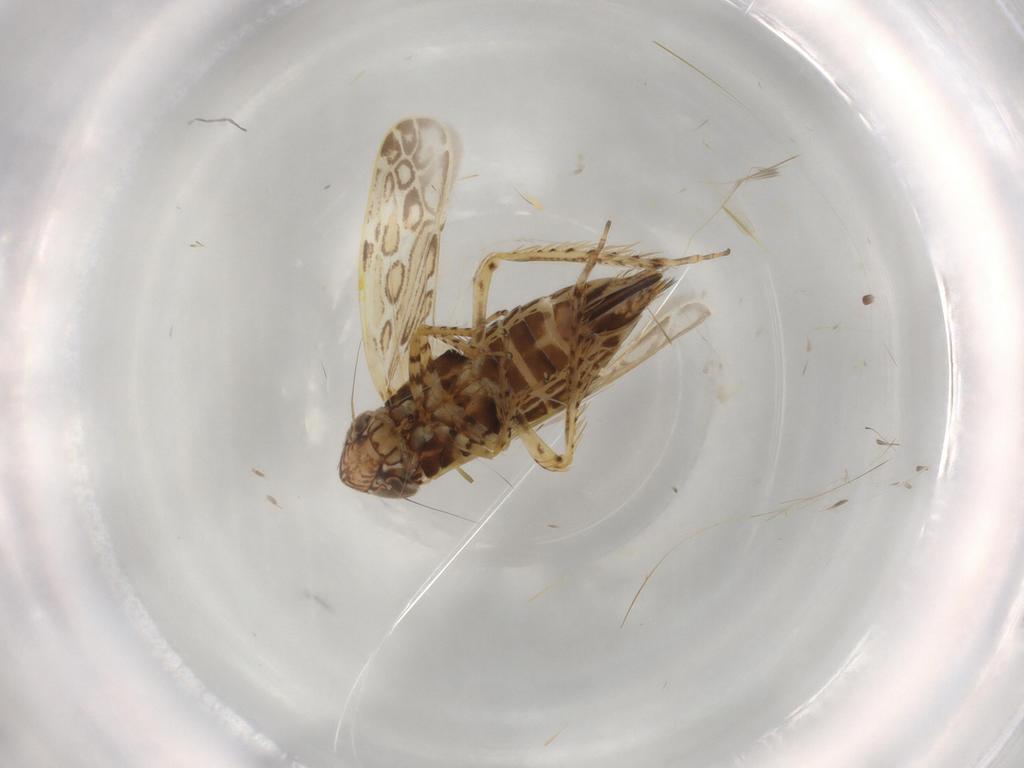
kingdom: Animalia
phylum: Arthropoda
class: Insecta
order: Hemiptera
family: Cicadellidae
